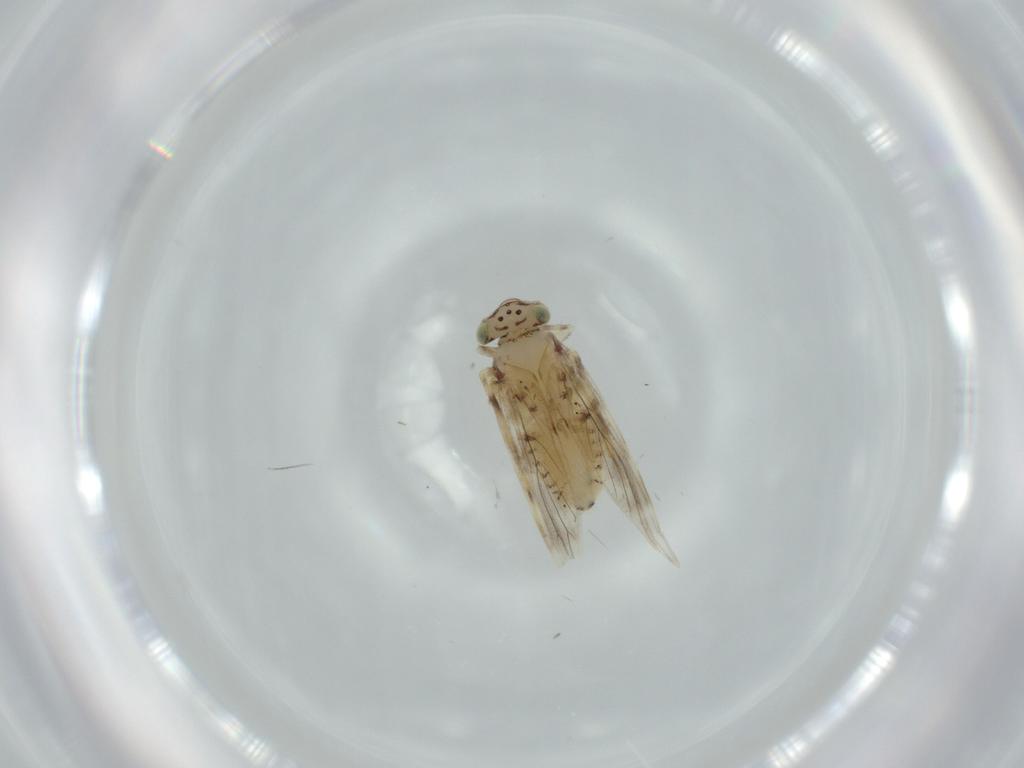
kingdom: Animalia
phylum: Arthropoda
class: Insecta
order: Psocodea
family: Lepidopsocidae
